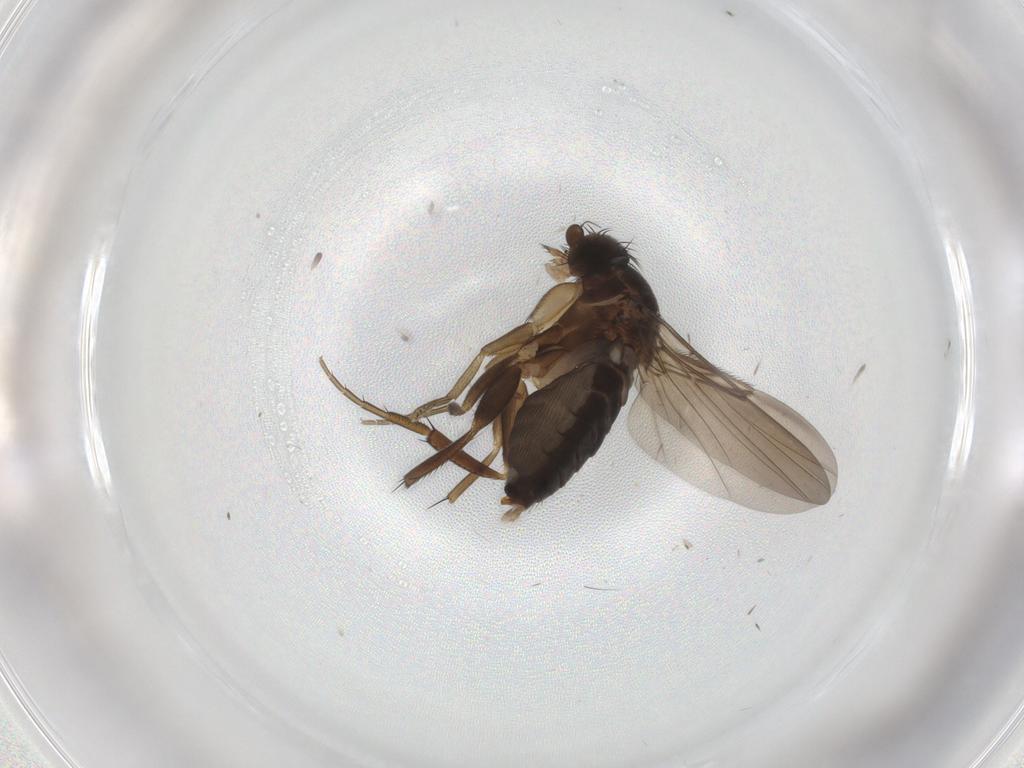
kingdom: Animalia
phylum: Arthropoda
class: Insecta
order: Diptera
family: Phoridae
